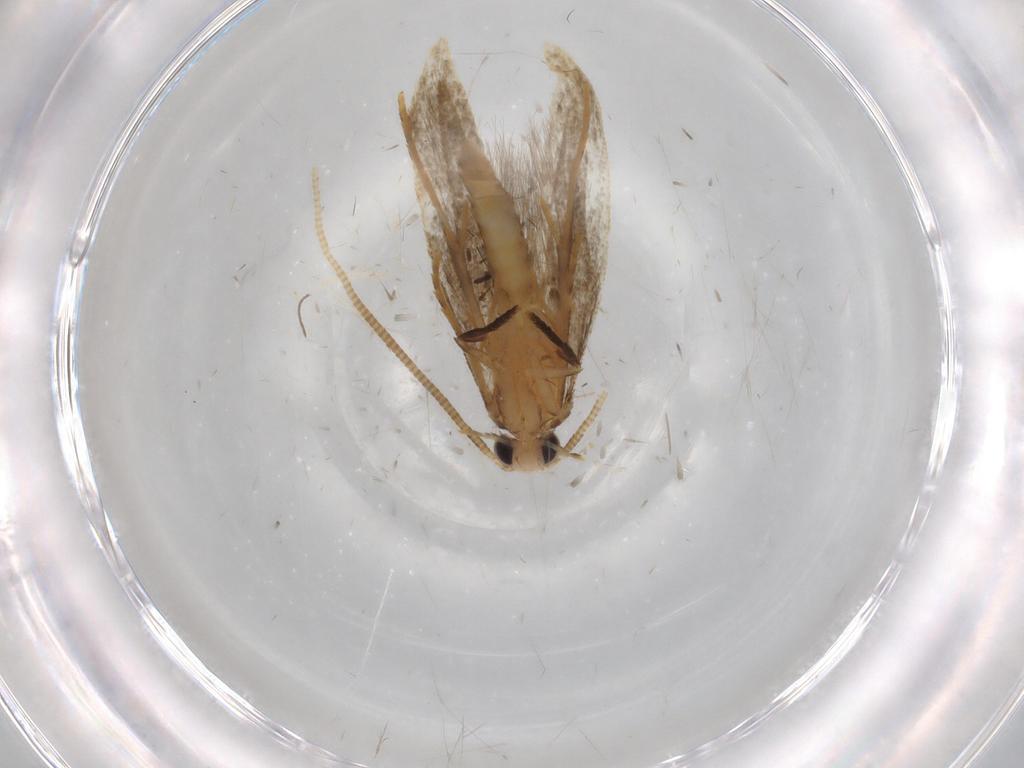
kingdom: Animalia
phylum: Arthropoda
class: Insecta
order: Lepidoptera
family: Tineidae
